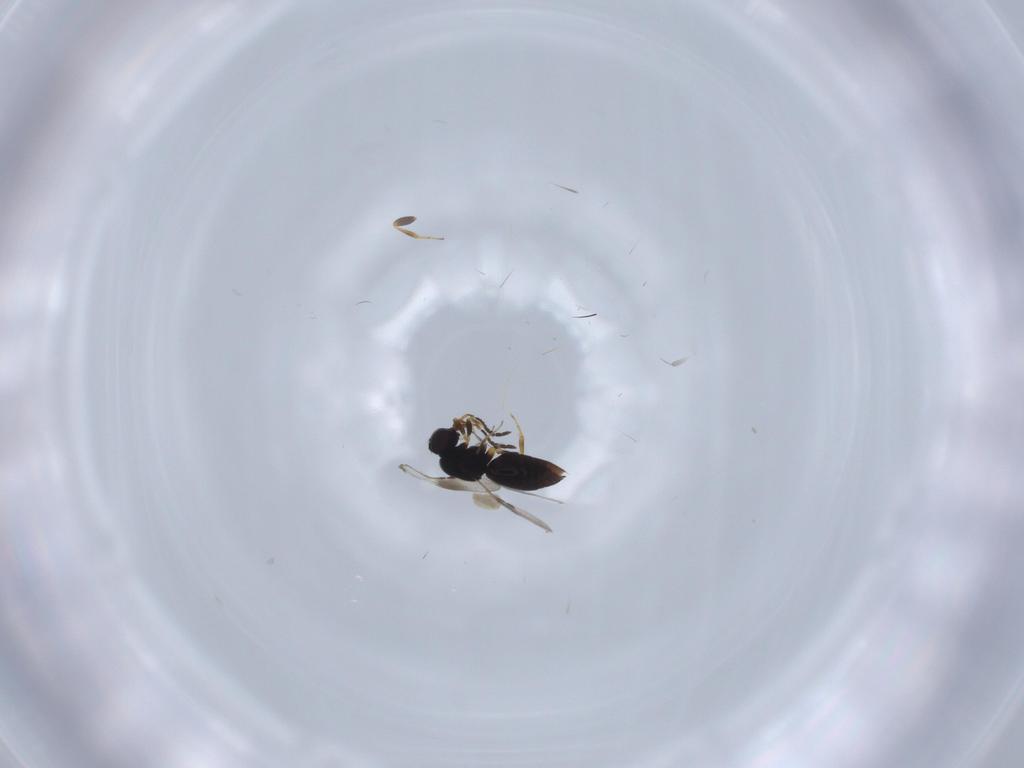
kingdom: Animalia
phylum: Arthropoda
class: Insecta
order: Hymenoptera
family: Ceraphronidae
